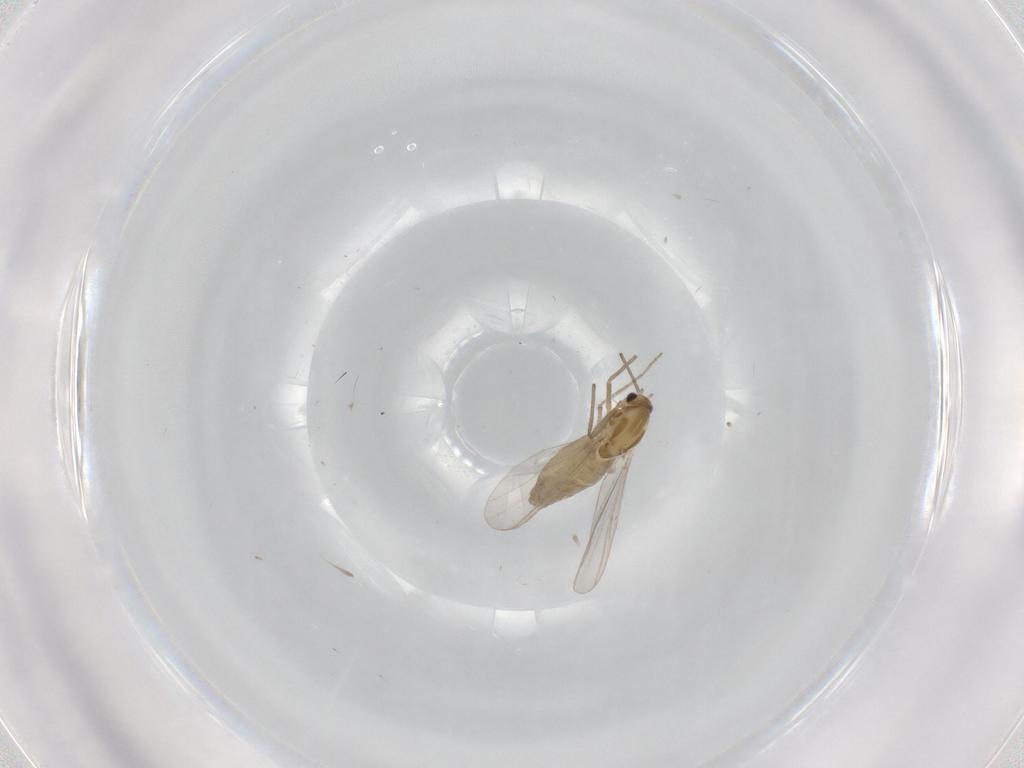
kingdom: Animalia
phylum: Arthropoda
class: Insecta
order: Diptera
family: Chironomidae
